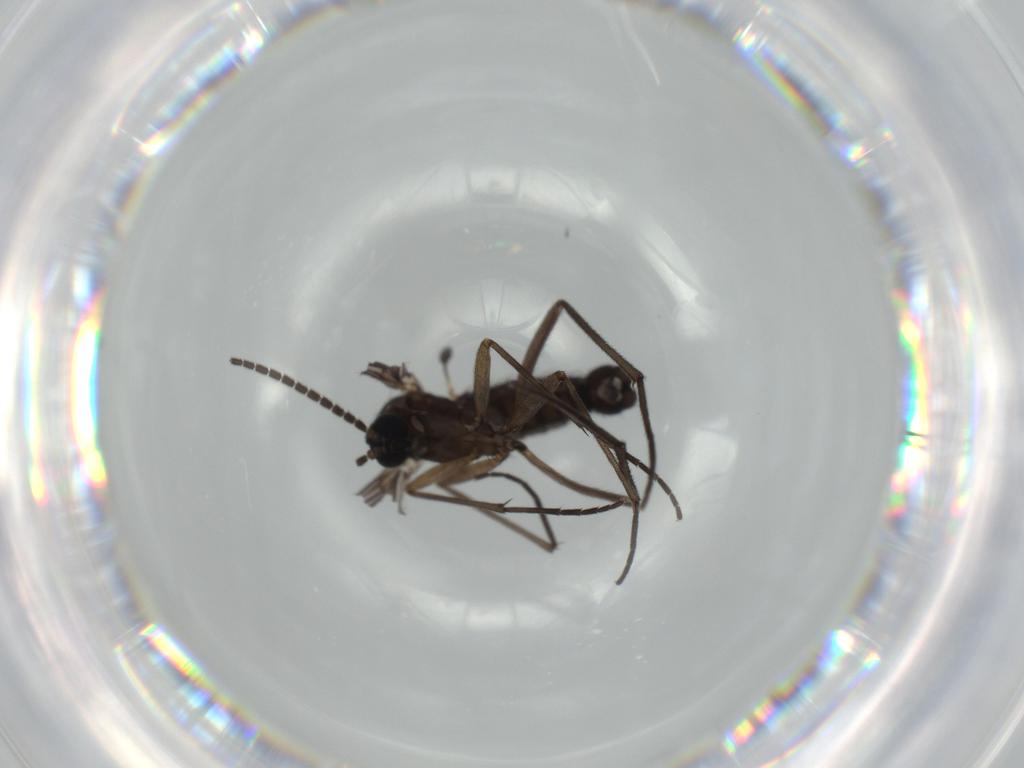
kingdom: Animalia
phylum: Arthropoda
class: Insecta
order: Diptera
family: Sciaridae
